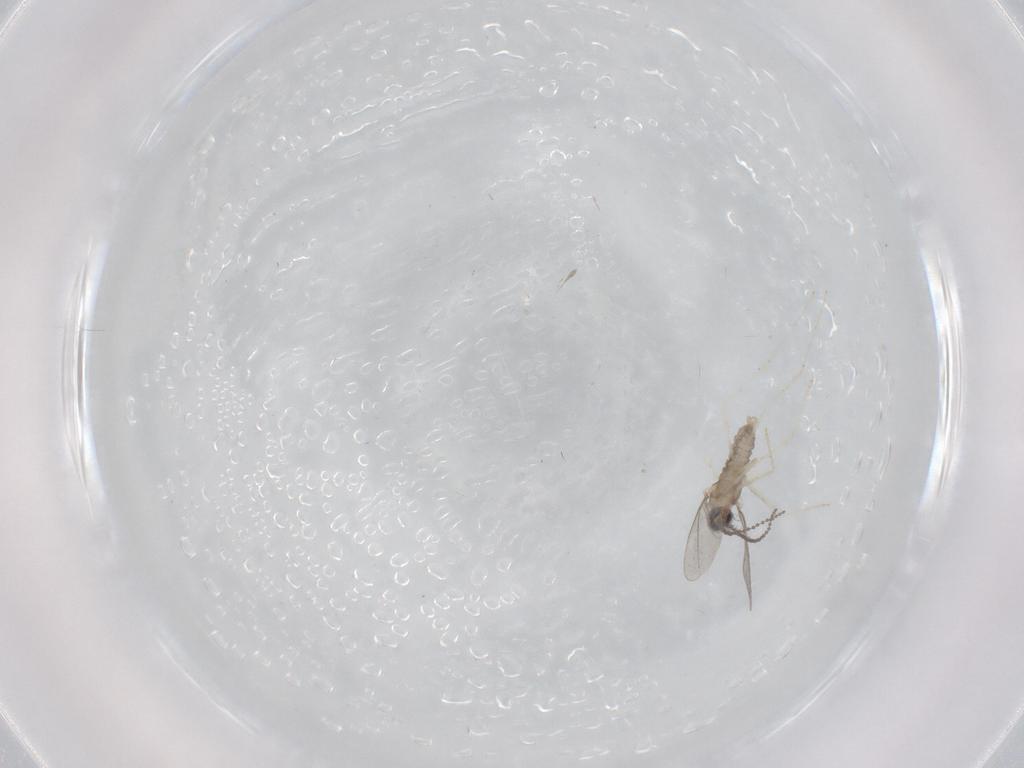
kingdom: Animalia
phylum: Arthropoda
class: Insecta
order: Diptera
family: Cecidomyiidae
